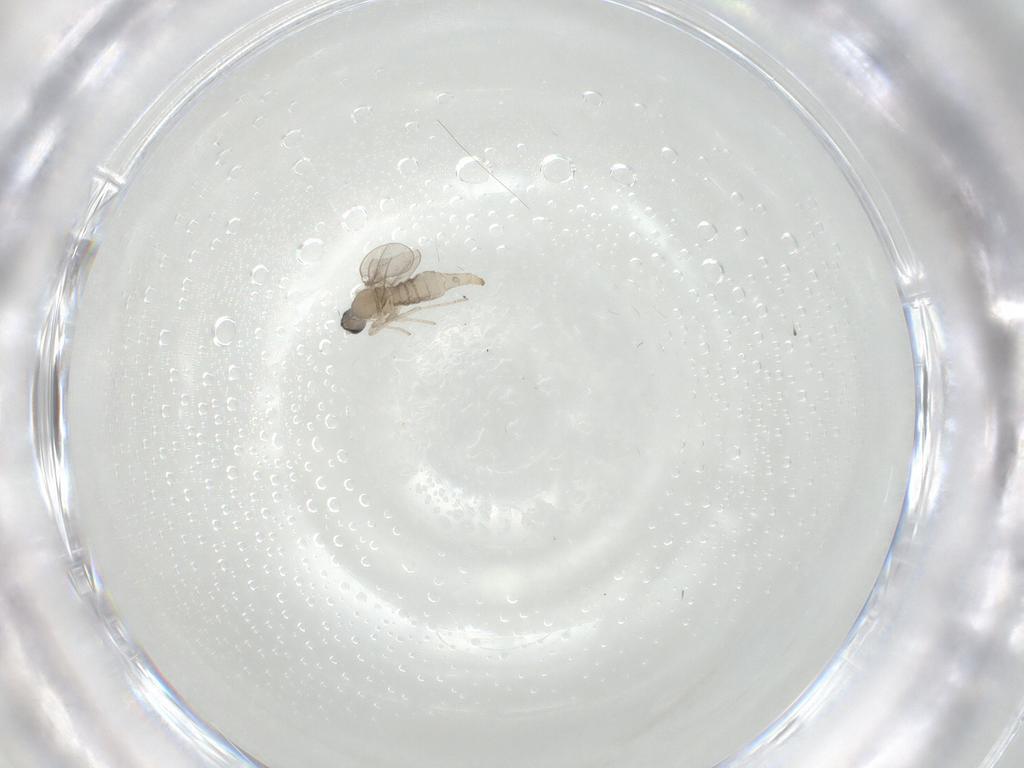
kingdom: Animalia
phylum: Arthropoda
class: Insecta
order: Diptera
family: Cecidomyiidae
